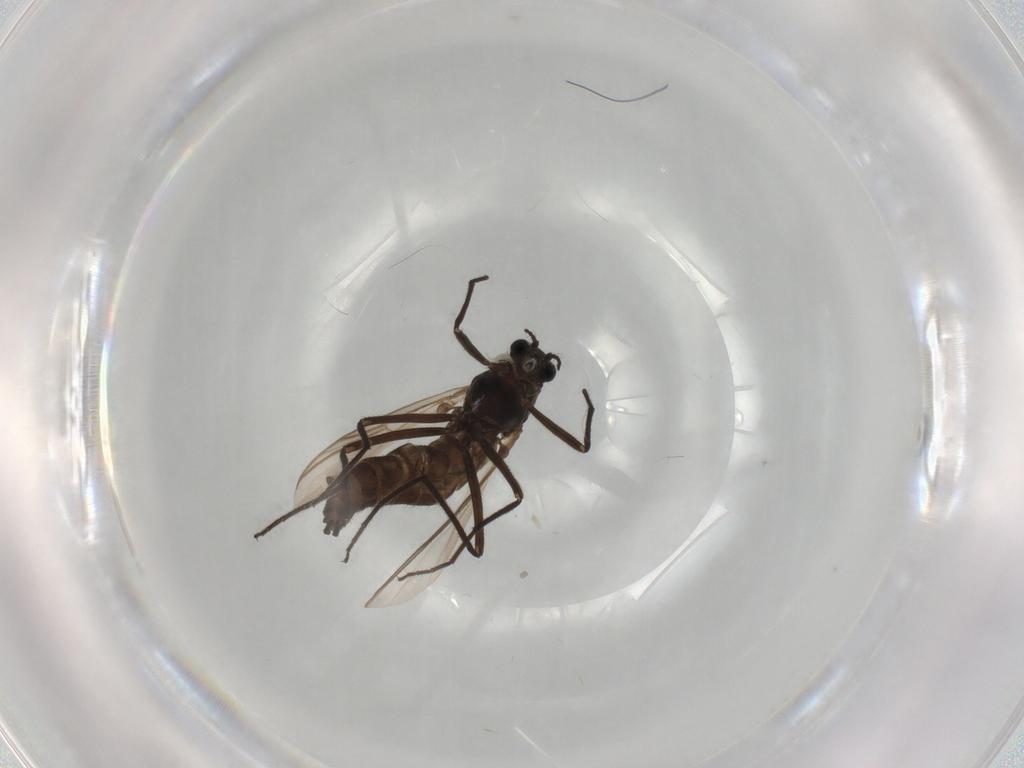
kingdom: Animalia
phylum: Arthropoda
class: Insecta
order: Diptera
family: Chironomidae
